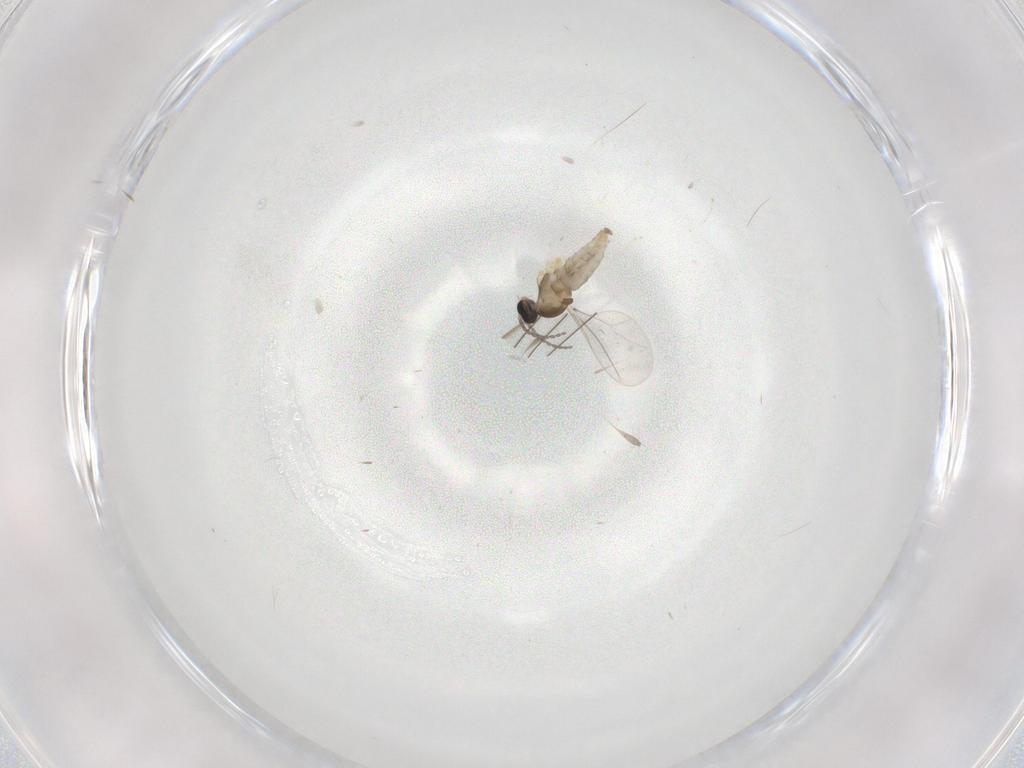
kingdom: Animalia
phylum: Arthropoda
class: Insecta
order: Diptera
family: Cecidomyiidae
